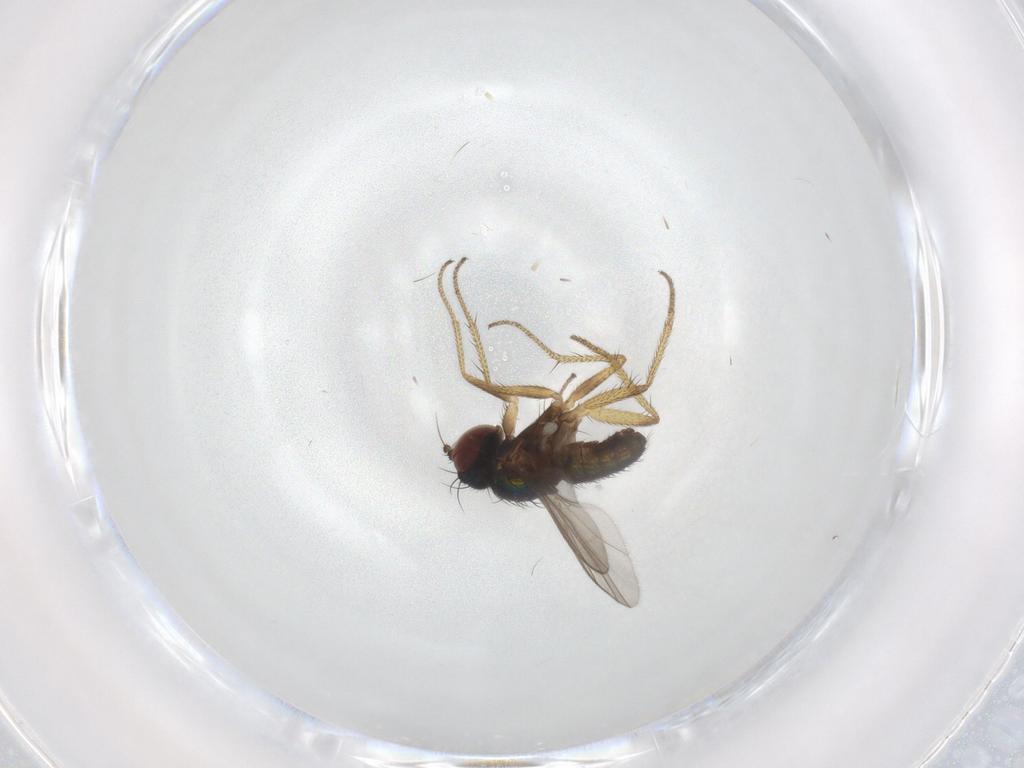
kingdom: Animalia
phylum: Arthropoda
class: Insecta
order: Diptera
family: Dolichopodidae
